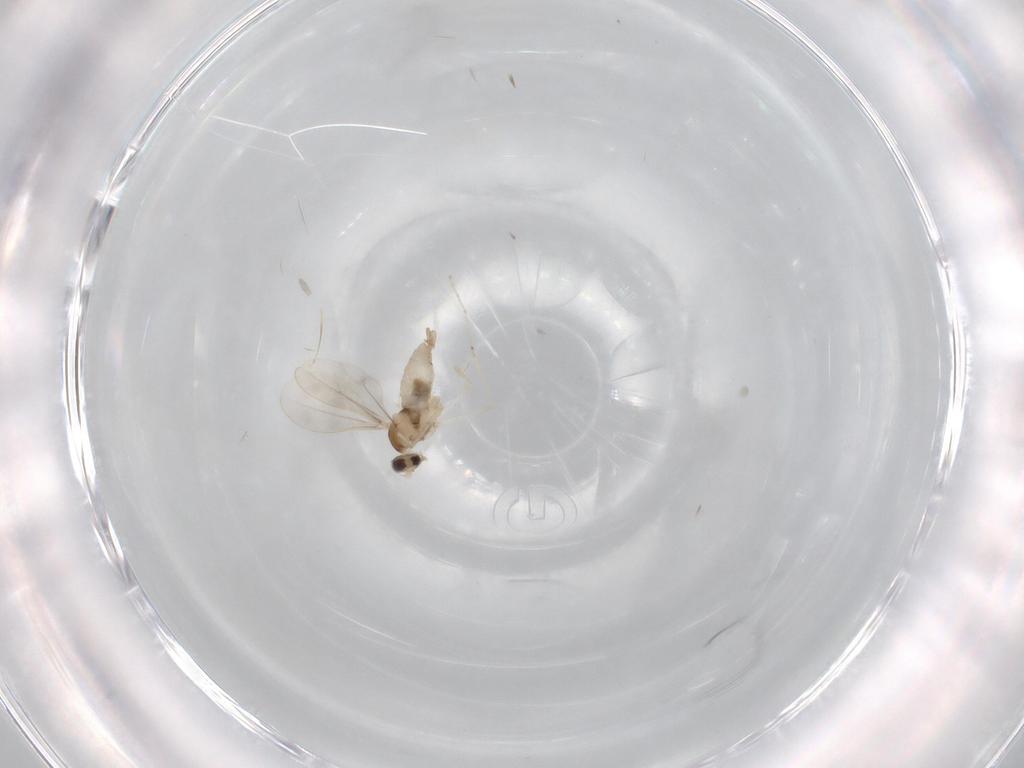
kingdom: Animalia
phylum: Arthropoda
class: Insecta
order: Diptera
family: Cecidomyiidae
